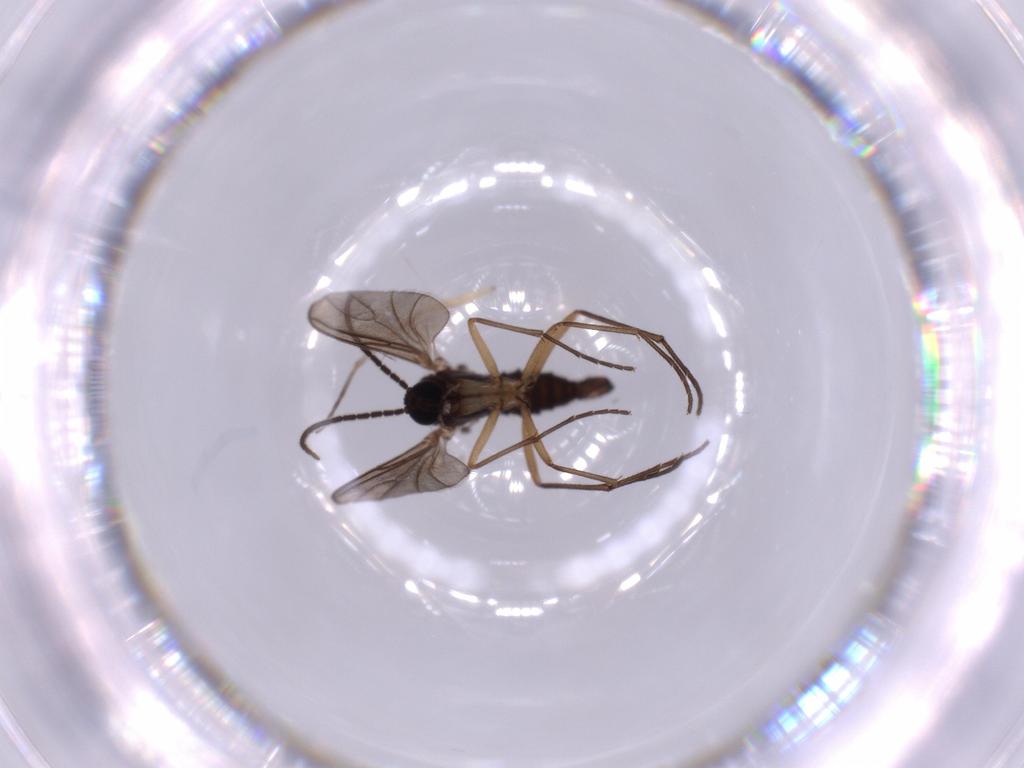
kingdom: Animalia
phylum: Arthropoda
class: Insecta
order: Diptera
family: Sciaridae
